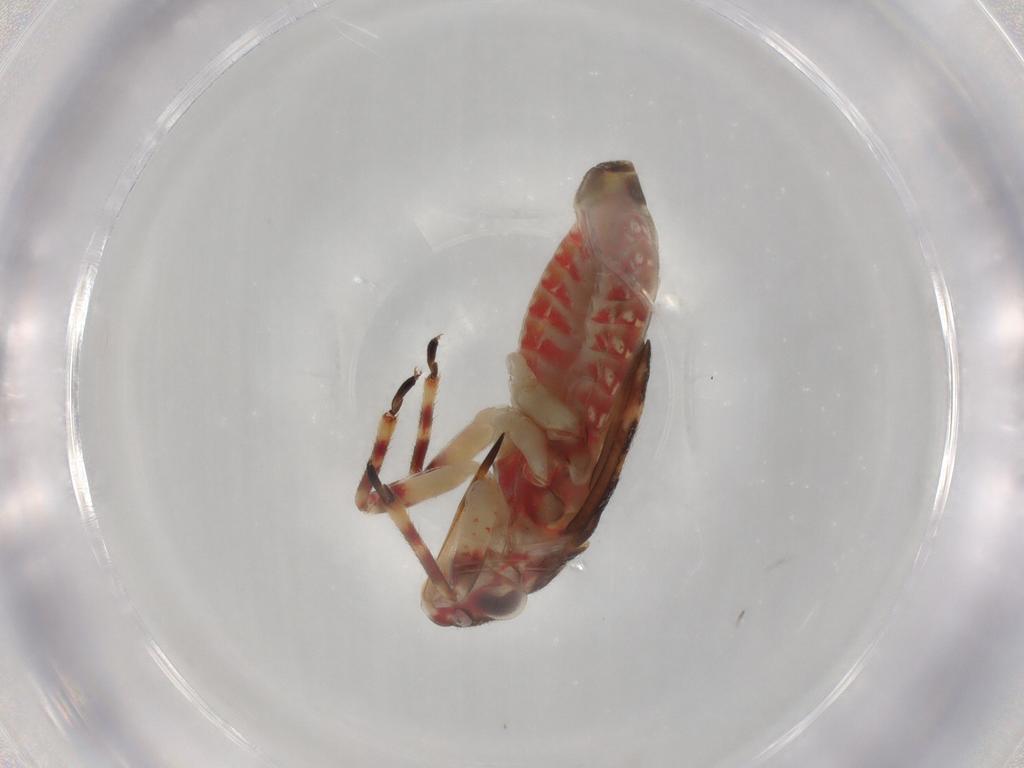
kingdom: Animalia
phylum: Arthropoda
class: Insecta
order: Hemiptera
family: Miridae
